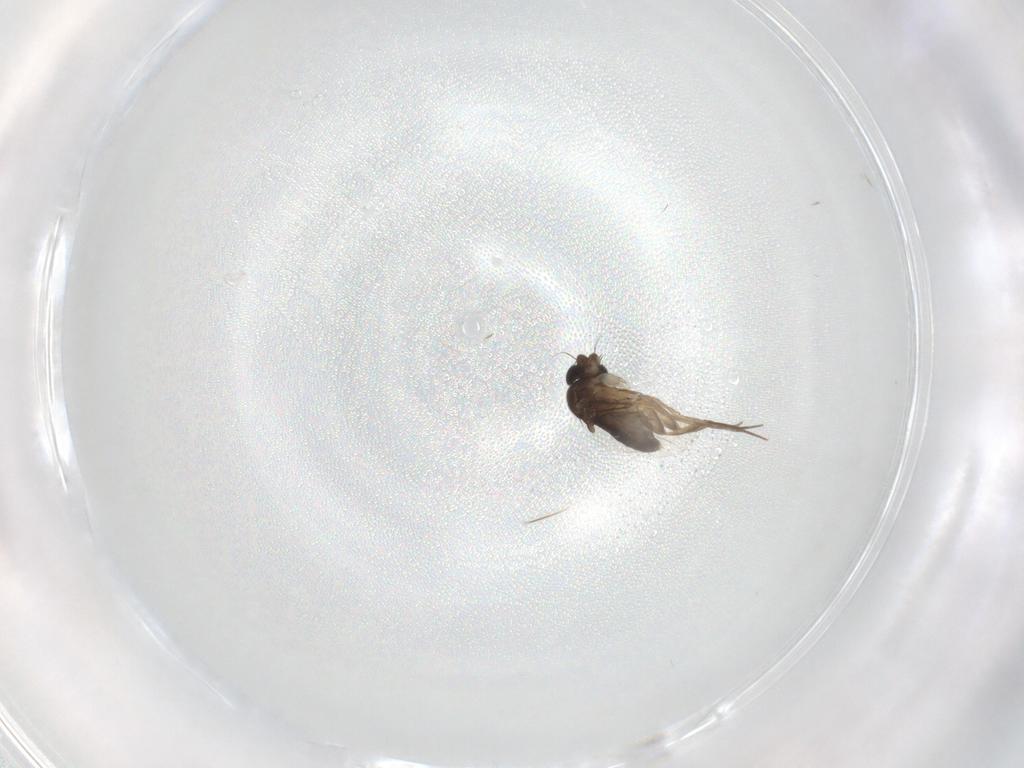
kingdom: Animalia
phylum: Arthropoda
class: Insecta
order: Diptera
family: Phoridae
